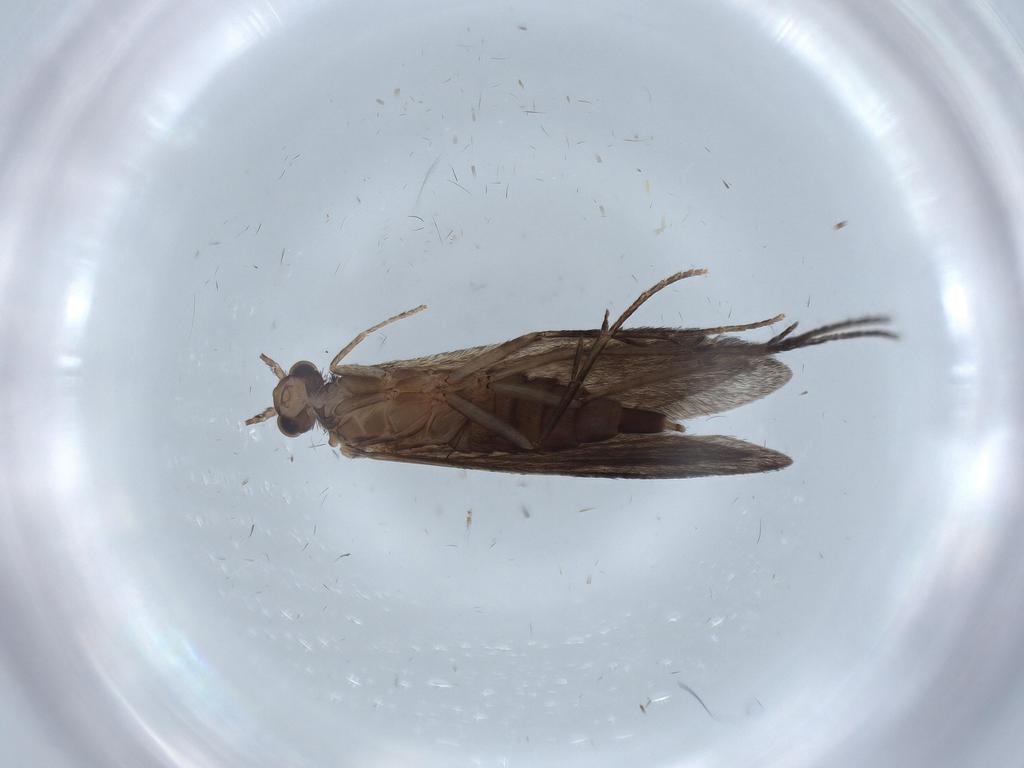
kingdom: Animalia
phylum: Arthropoda
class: Insecta
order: Trichoptera
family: Xiphocentronidae
